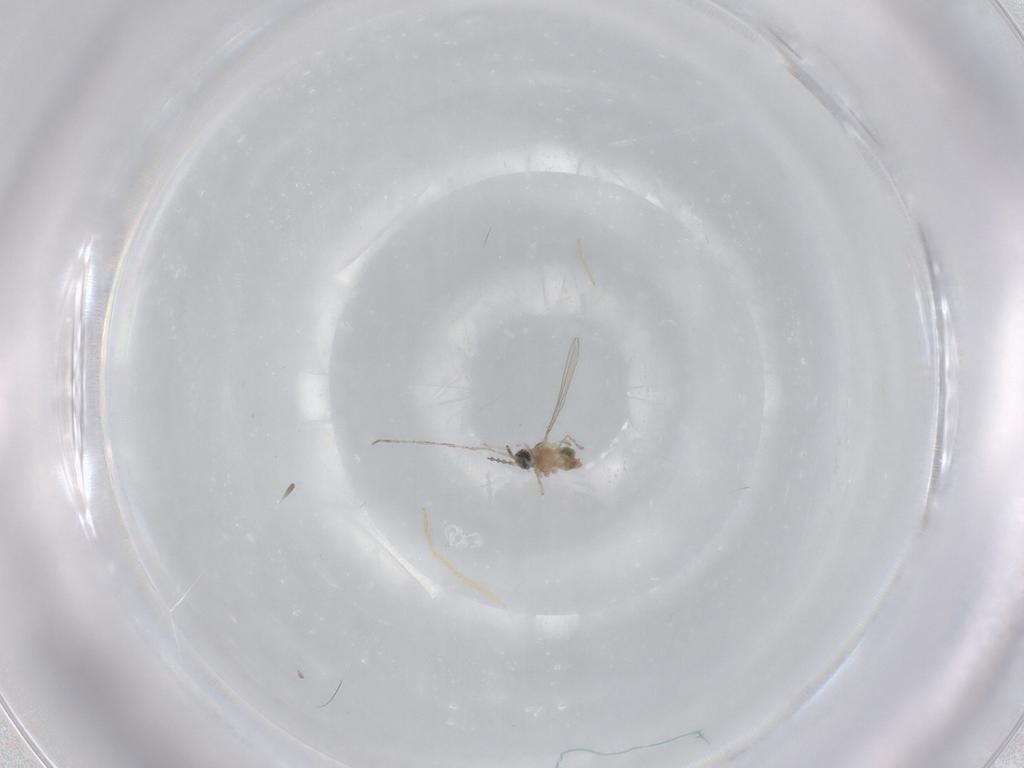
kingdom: Animalia
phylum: Arthropoda
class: Insecta
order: Diptera
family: Cecidomyiidae
